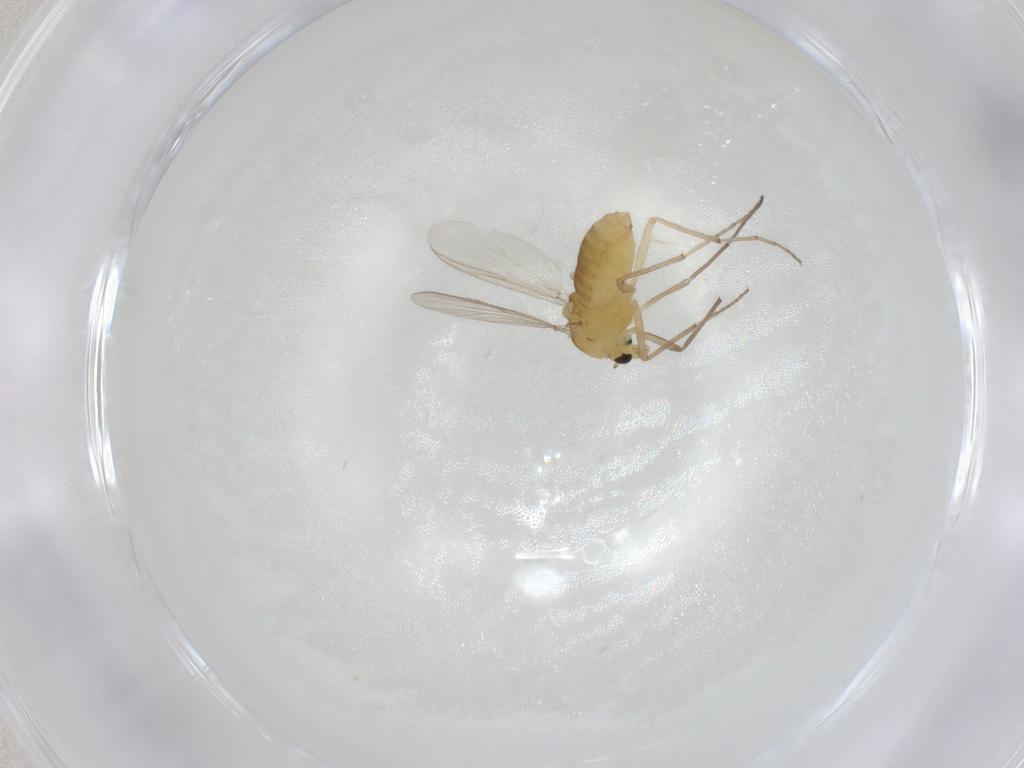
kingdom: Animalia
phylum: Arthropoda
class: Insecta
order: Diptera
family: Chironomidae
